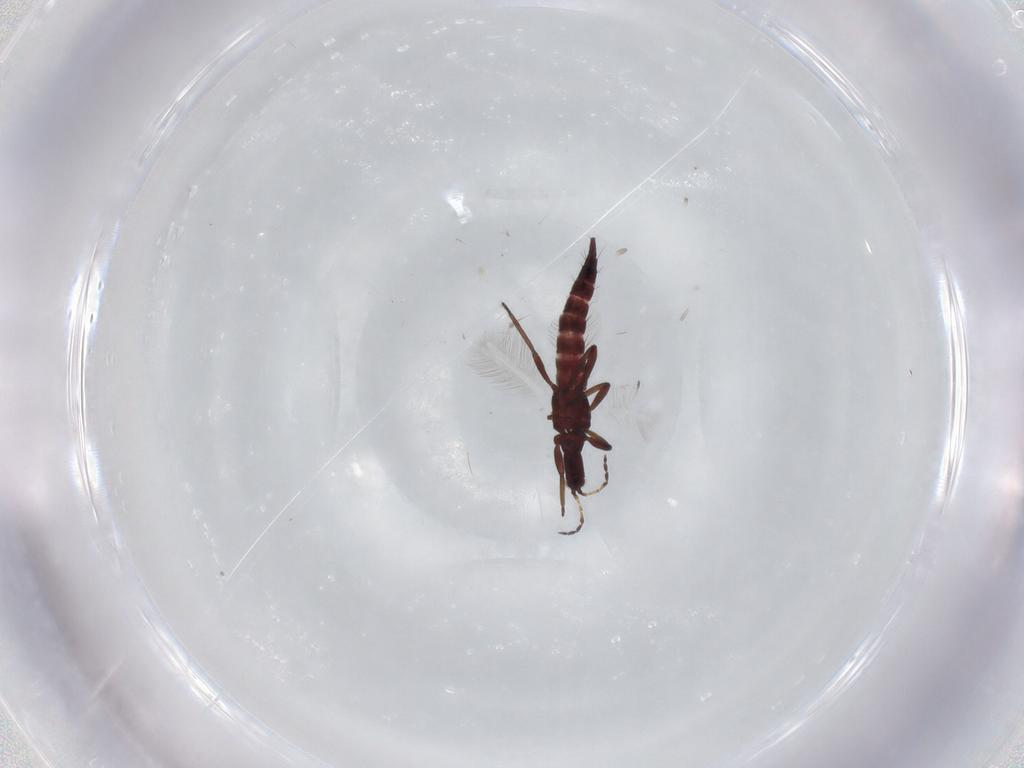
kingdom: Animalia
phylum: Arthropoda
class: Insecta
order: Thysanoptera
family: Phlaeothripidae
